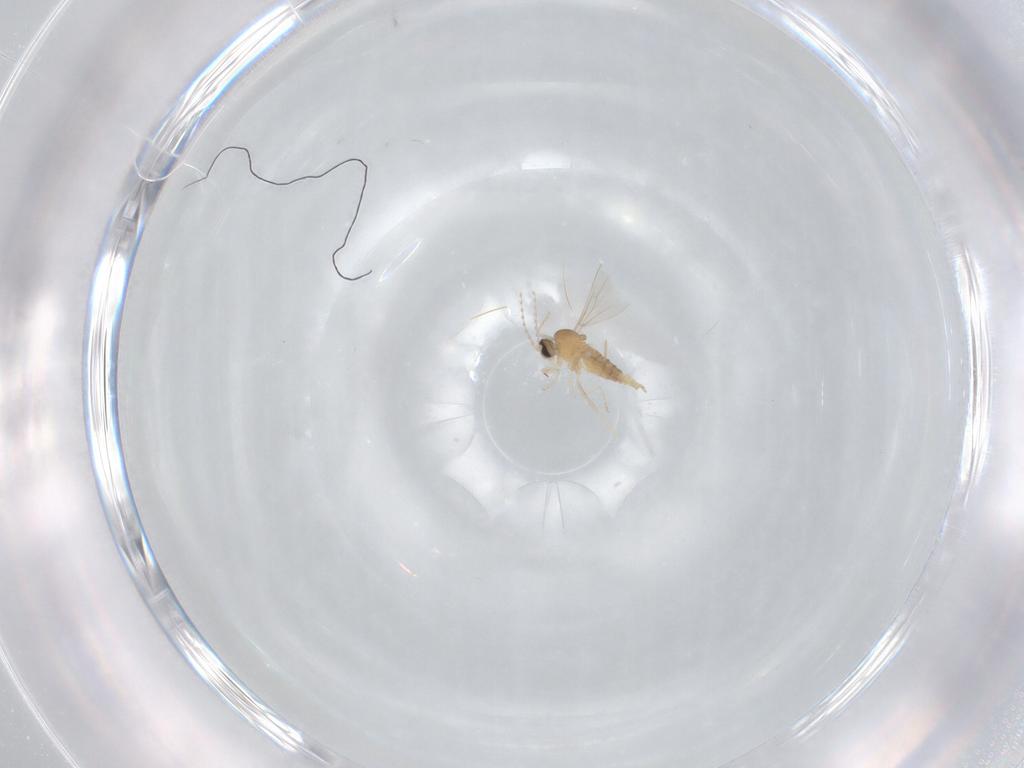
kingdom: Animalia
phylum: Arthropoda
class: Insecta
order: Diptera
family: Cecidomyiidae
